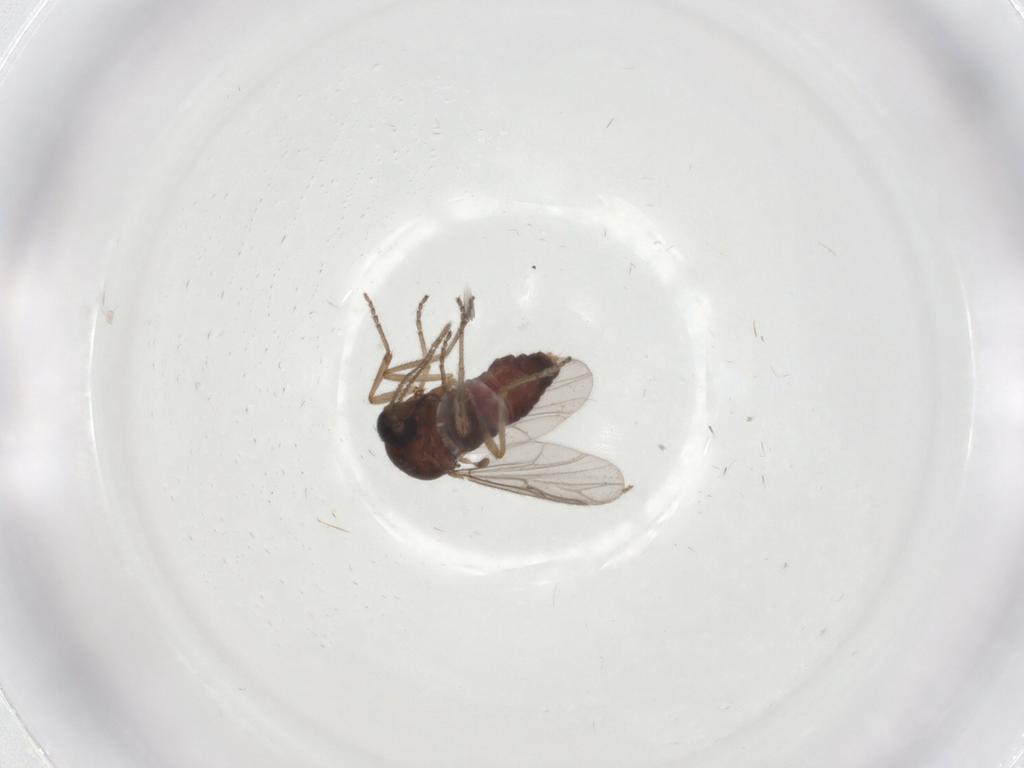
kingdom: Animalia
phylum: Arthropoda
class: Insecta
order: Diptera
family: Ceratopogonidae
